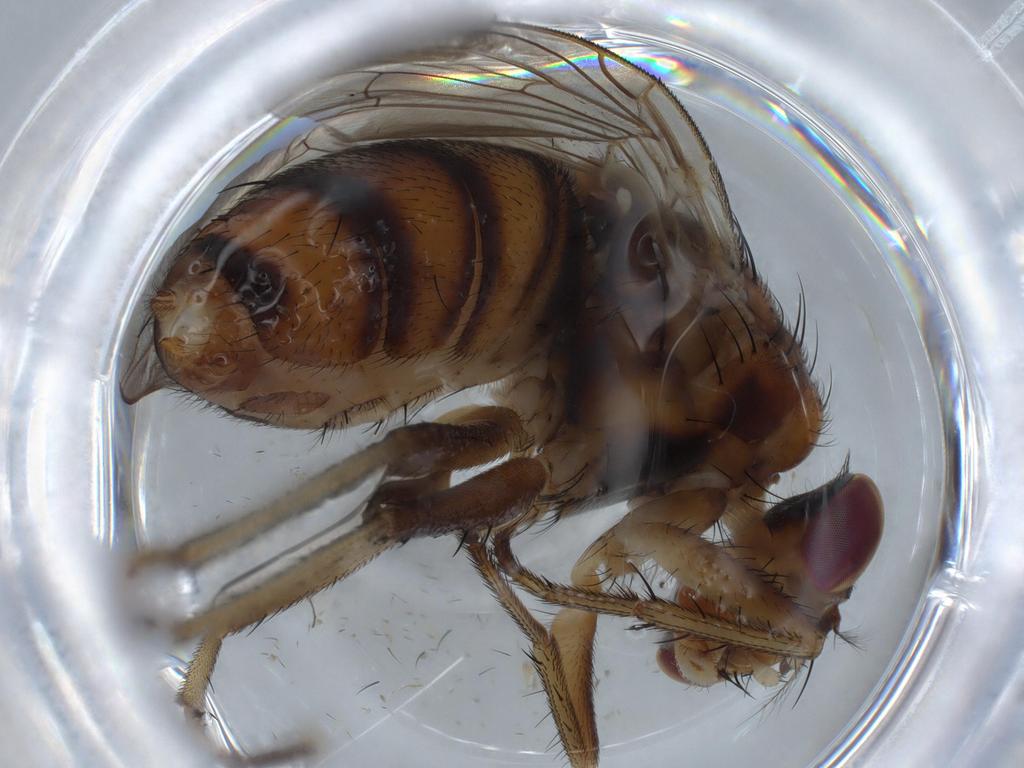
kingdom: Animalia
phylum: Arthropoda
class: Insecta
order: Diptera
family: Calliphoridae
